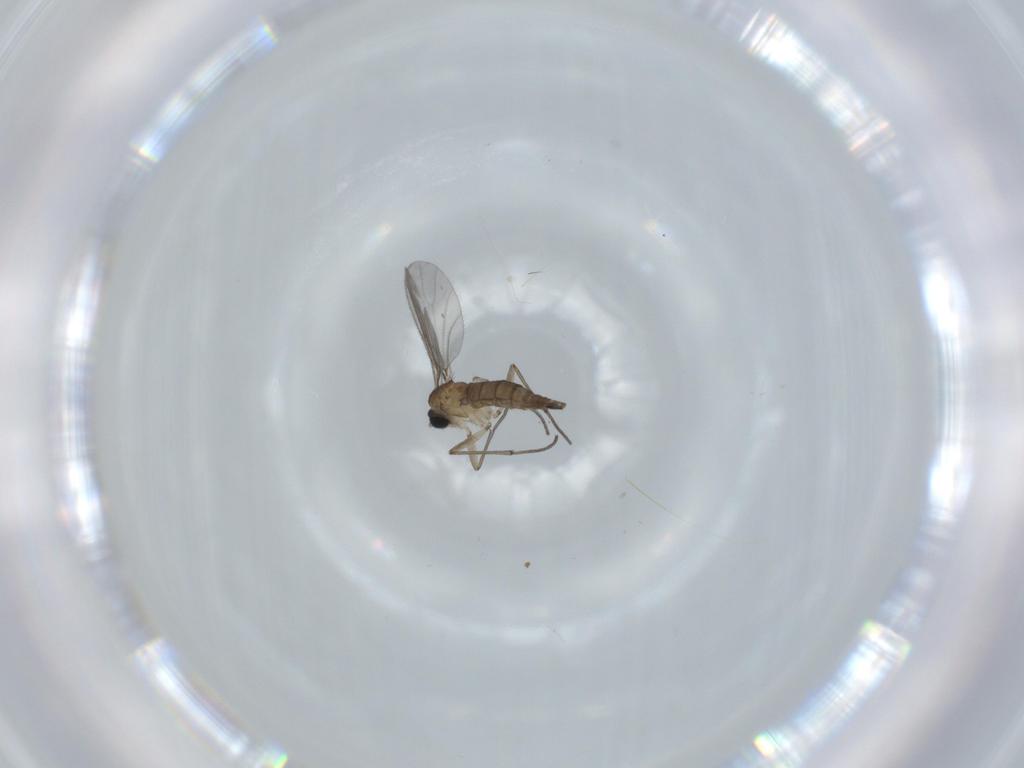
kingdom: Animalia
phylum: Arthropoda
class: Insecta
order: Diptera
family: Sciaridae
